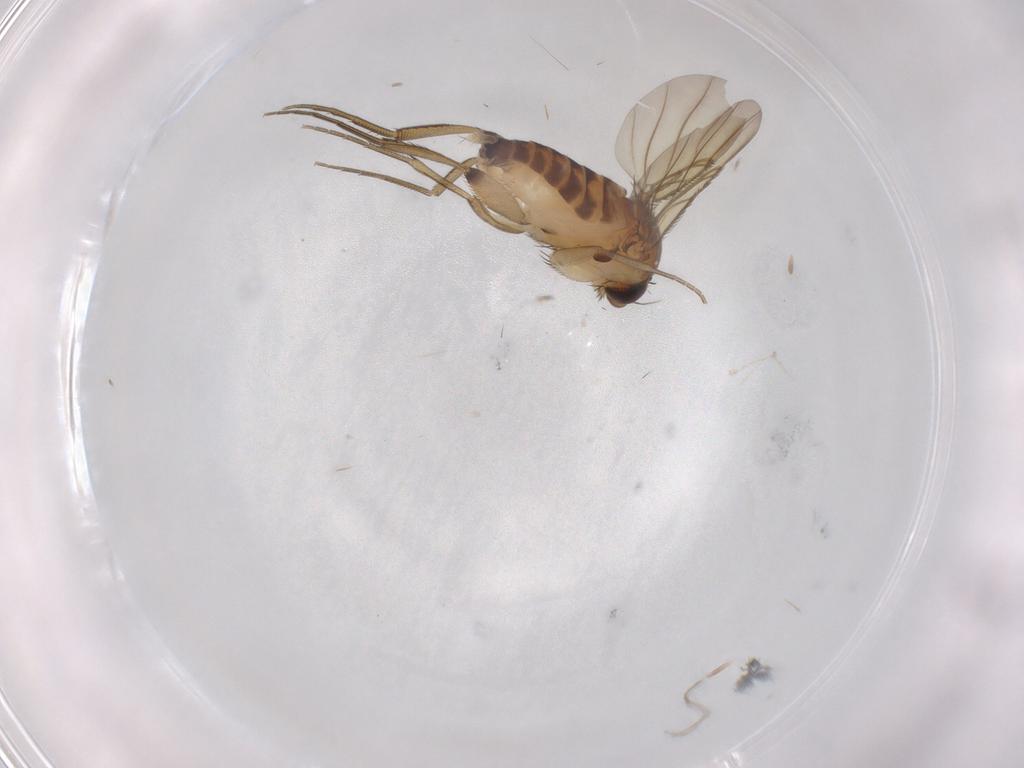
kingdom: Animalia
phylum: Arthropoda
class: Insecta
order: Diptera
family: Phoridae
